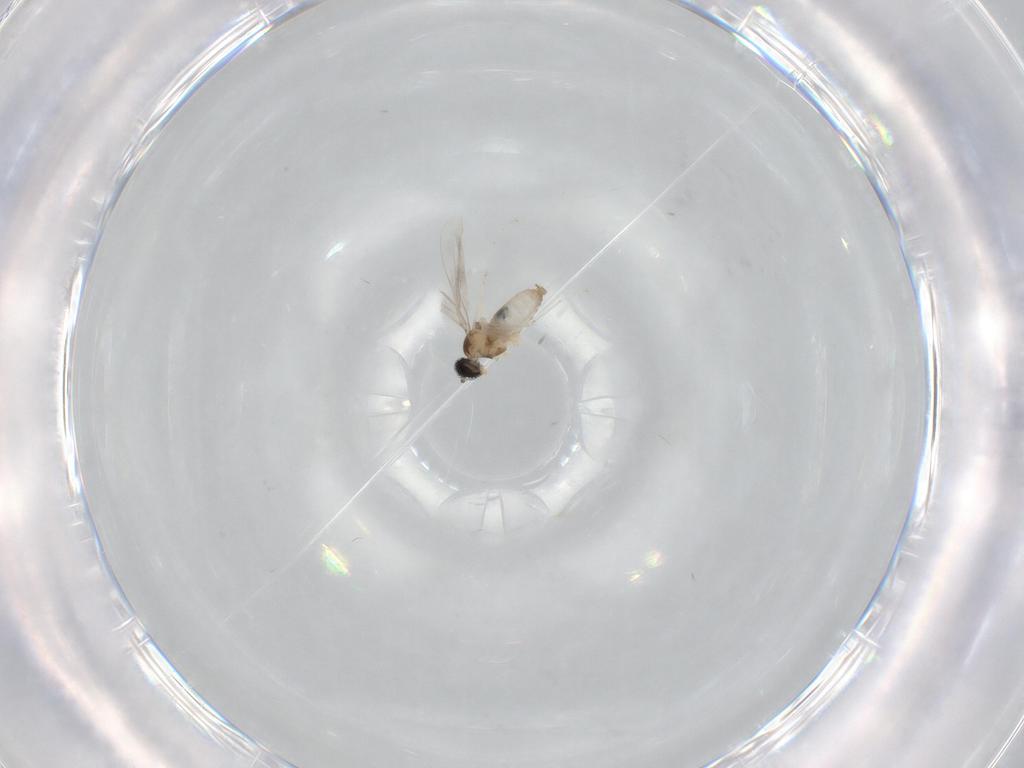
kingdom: Animalia
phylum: Arthropoda
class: Insecta
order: Diptera
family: Cecidomyiidae
